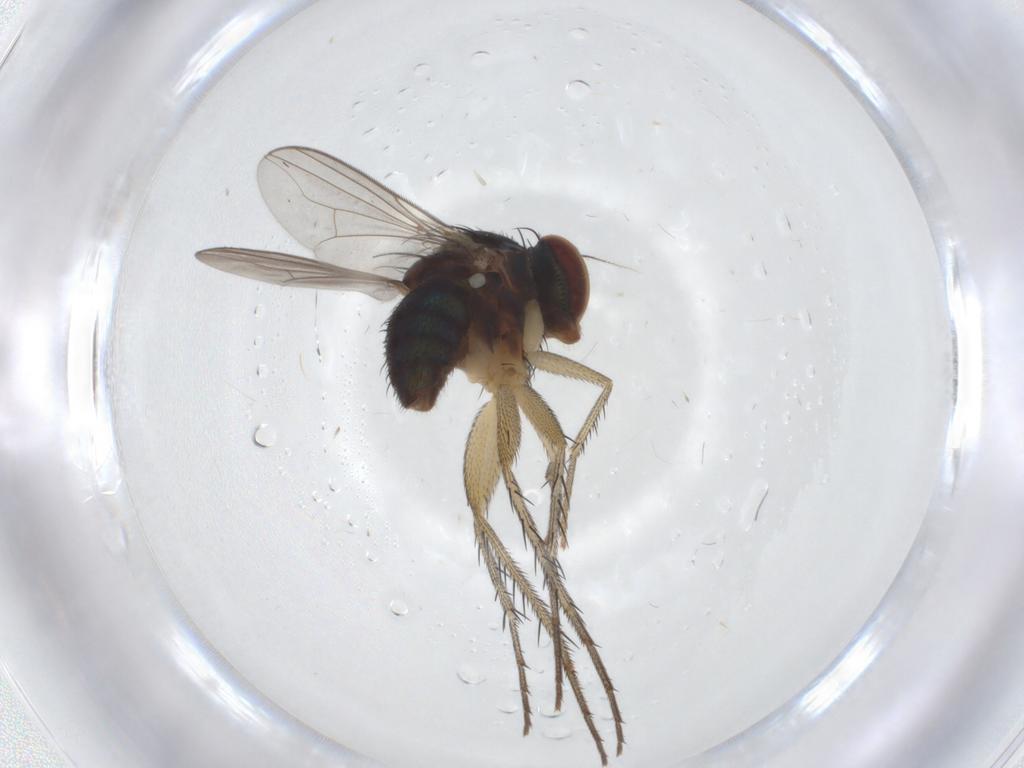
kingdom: Animalia
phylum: Arthropoda
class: Insecta
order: Diptera
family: Dolichopodidae
